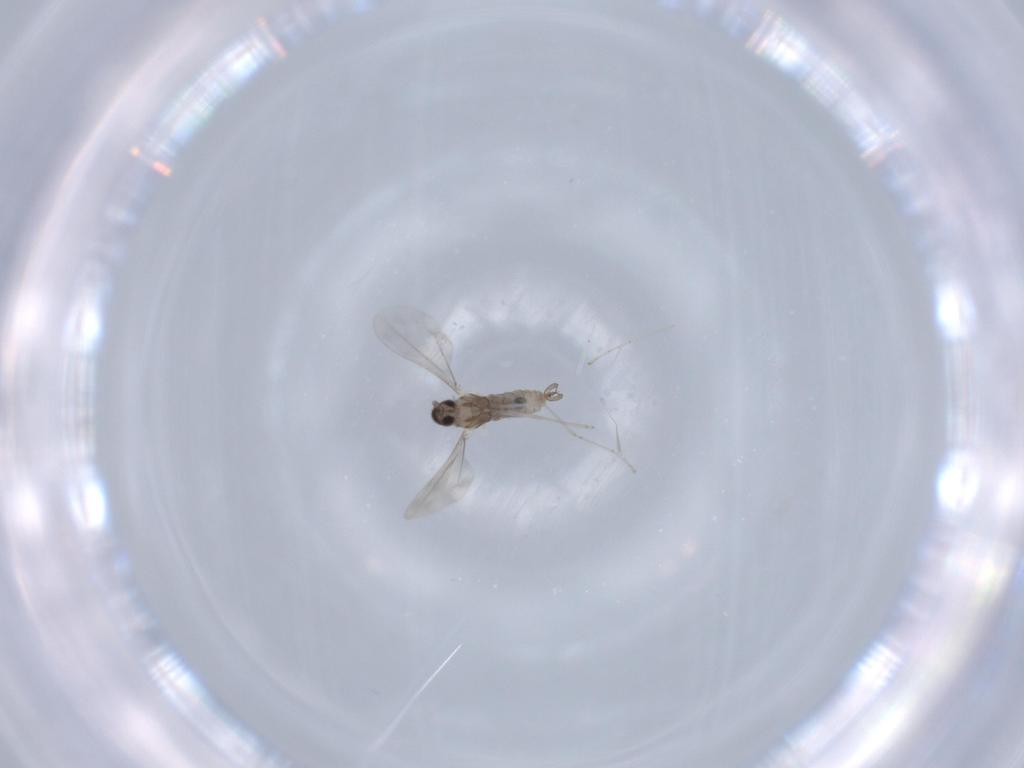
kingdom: Animalia
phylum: Arthropoda
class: Insecta
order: Diptera
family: Cecidomyiidae
